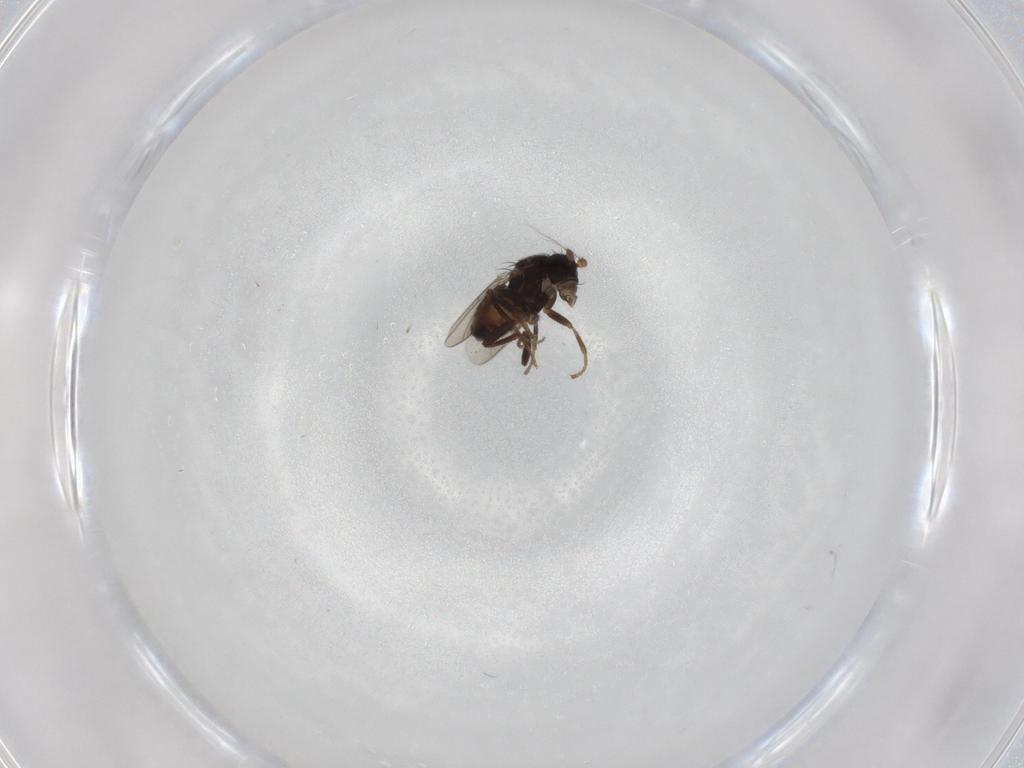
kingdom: Animalia
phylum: Arthropoda
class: Insecta
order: Diptera
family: Sphaeroceridae
